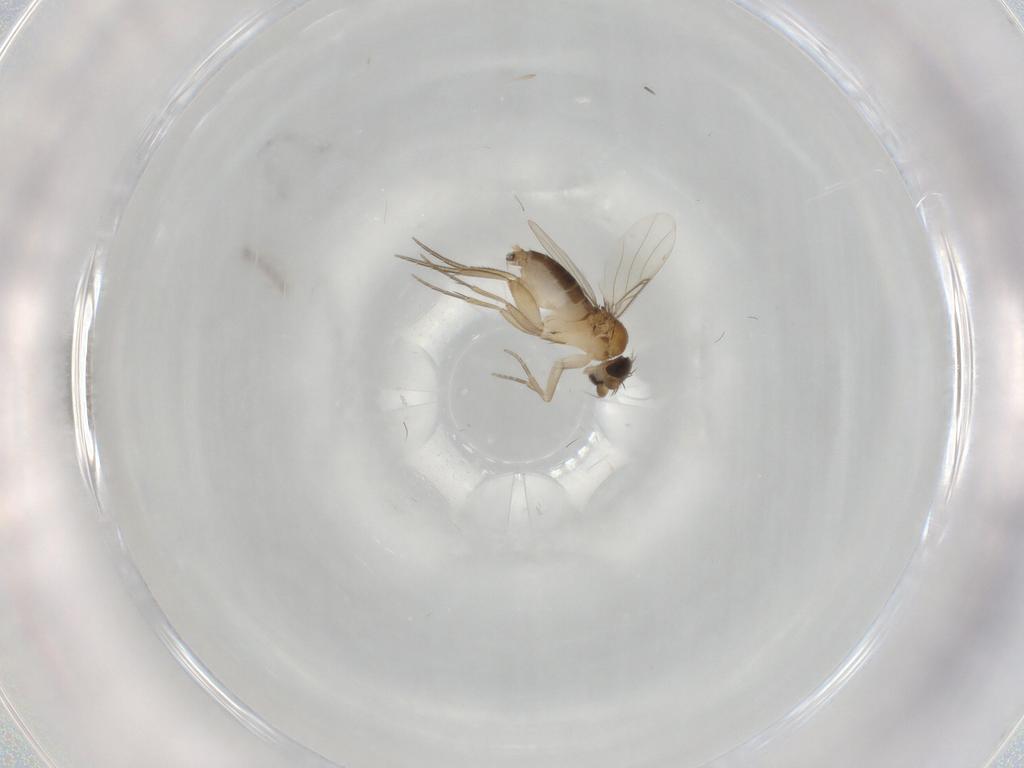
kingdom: Animalia
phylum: Arthropoda
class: Insecta
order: Diptera
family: Phoridae
